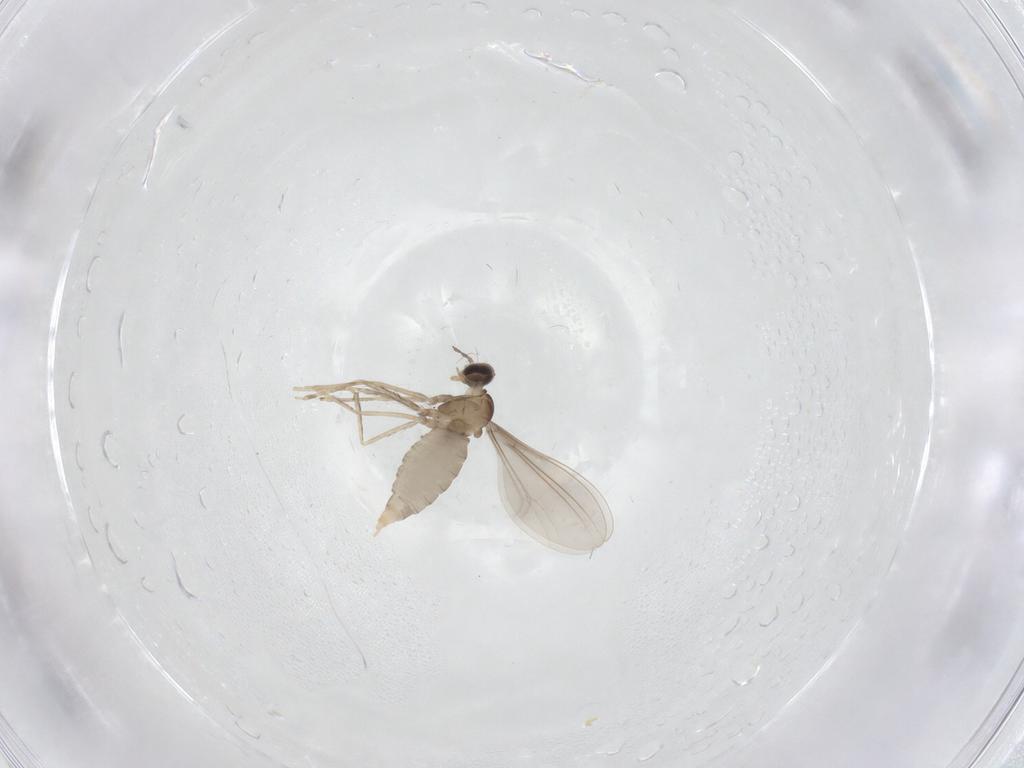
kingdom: Animalia
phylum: Arthropoda
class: Insecta
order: Diptera
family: Cecidomyiidae
